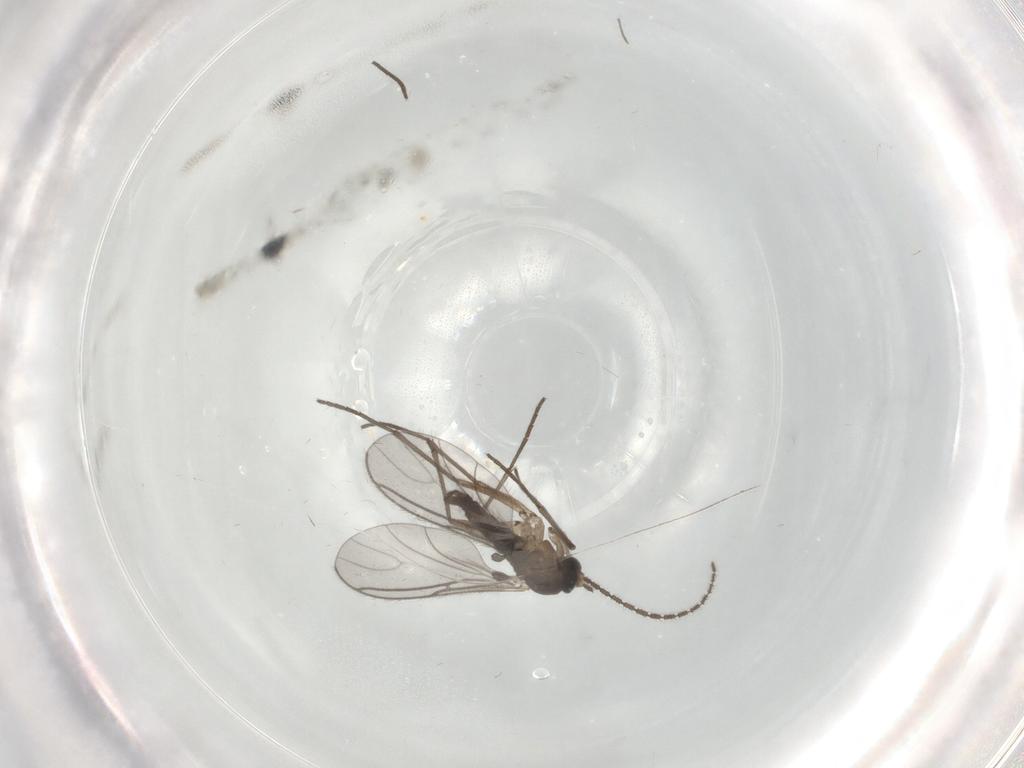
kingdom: Animalia
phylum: Arthropoda
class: Insecta
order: Diptera
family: Sciaridae
